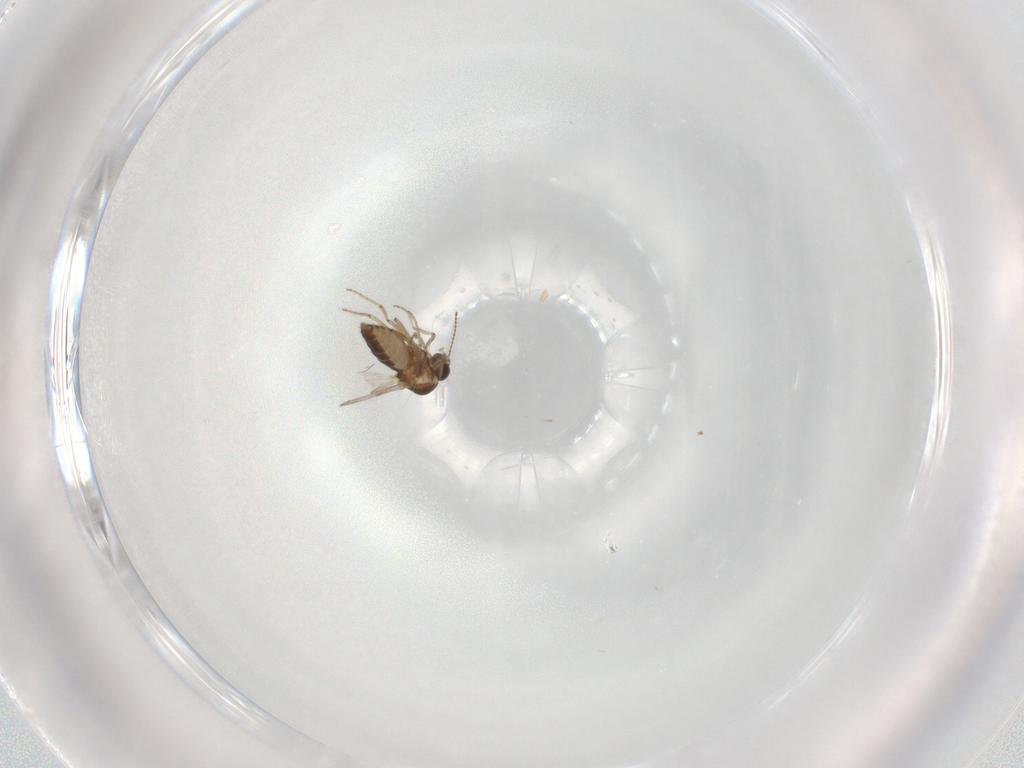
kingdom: Animalia
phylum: Arthropoda
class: Insecta
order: Diptera
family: Ceratopogonidae
